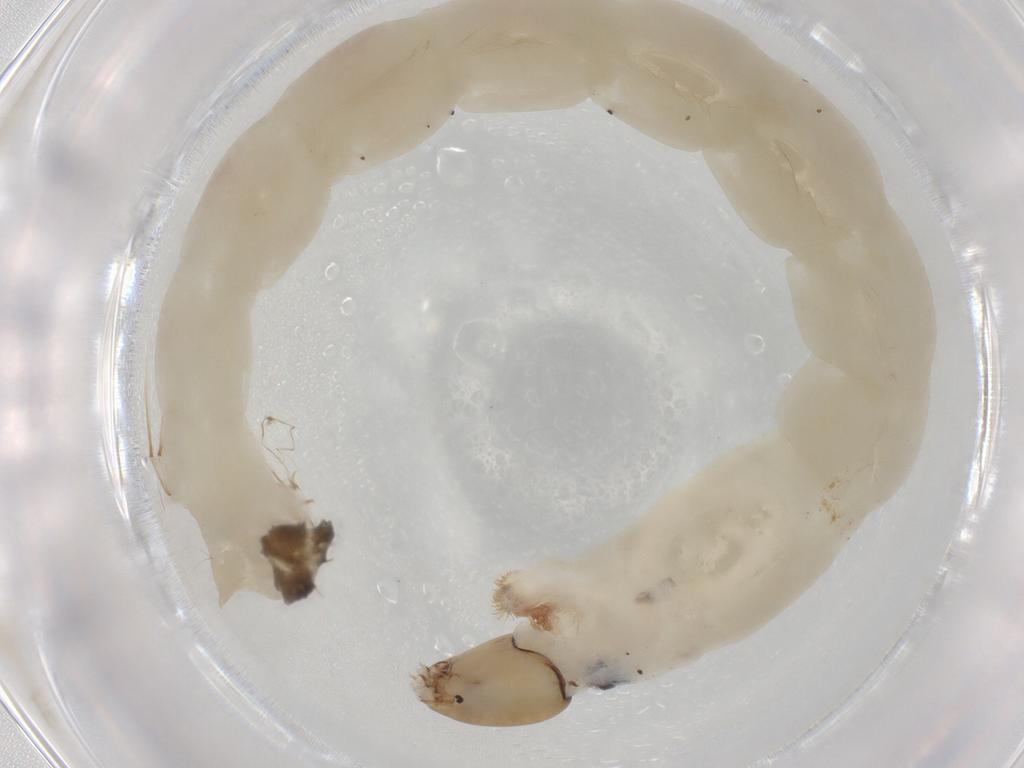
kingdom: Animalia
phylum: Arthropoda
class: Insecta
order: Diptera
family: Chironomidae
